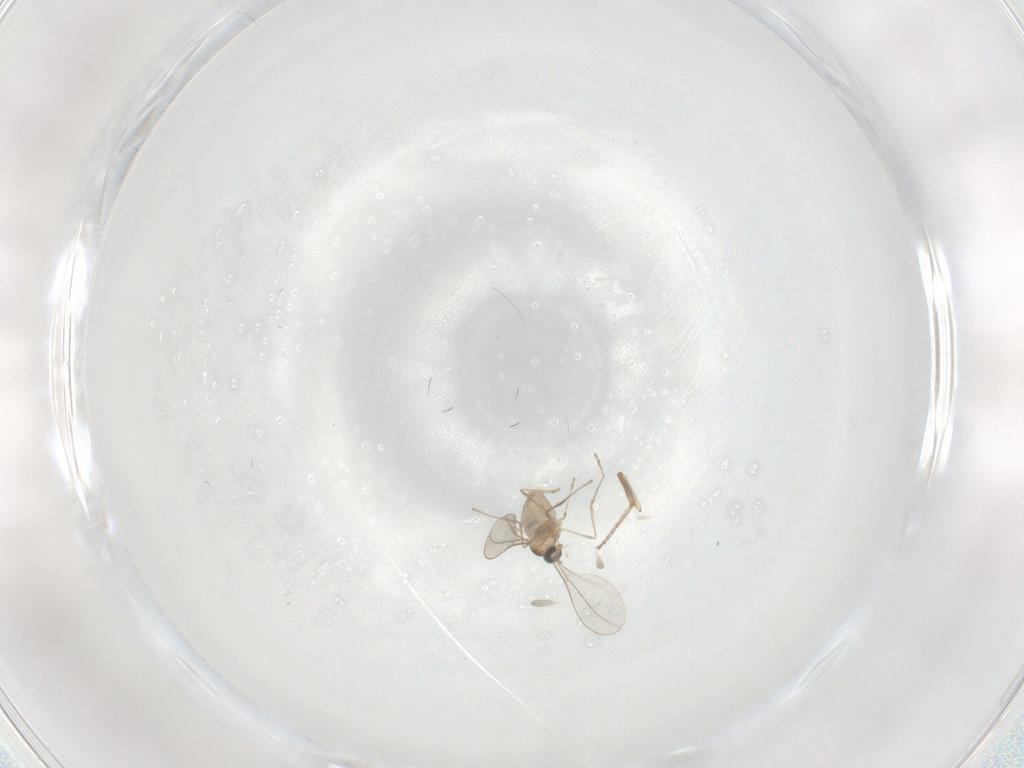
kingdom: Animalia
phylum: Arthropoda
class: Insecta
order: Diptera
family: Cecidomyiidae
